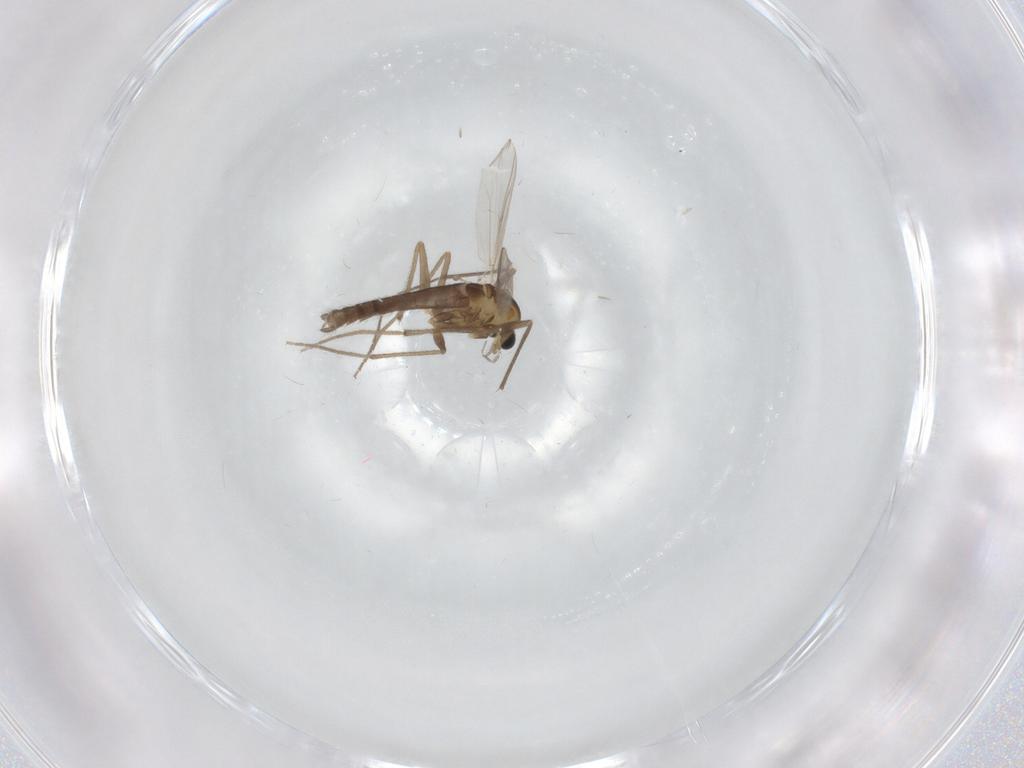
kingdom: Animalia
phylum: Arthropoda
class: Insecta
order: Diptera
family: Chironomidae
